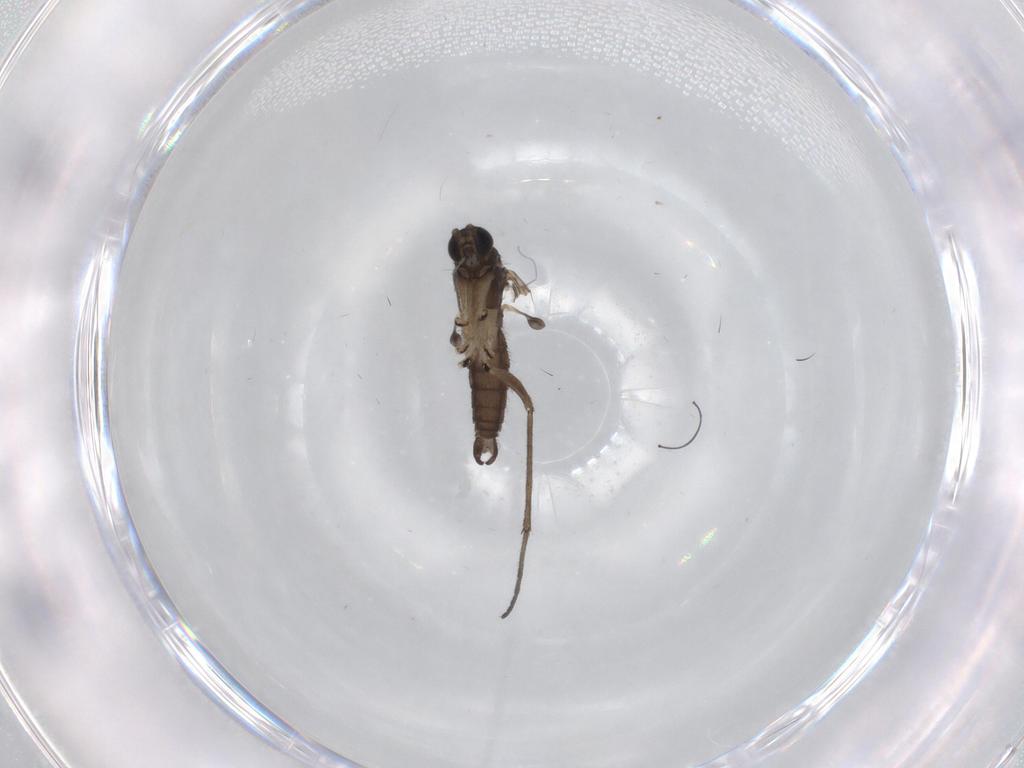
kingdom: Animalia
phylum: Arthropoda
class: Insecta
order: Diptera
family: Sciaridae
